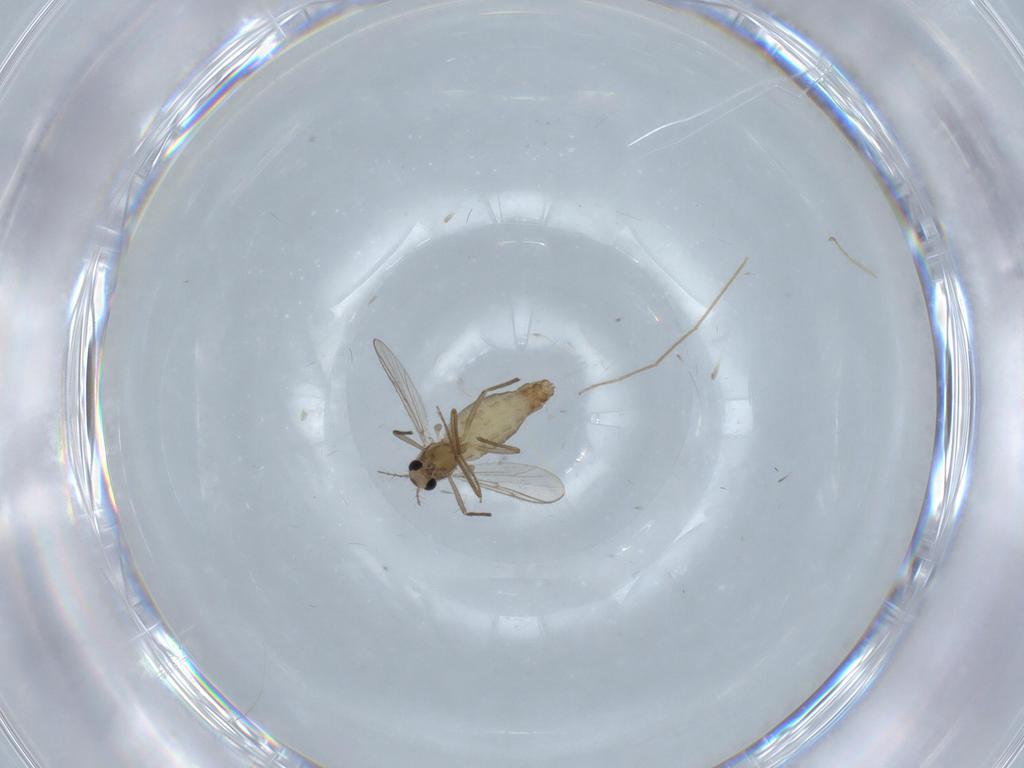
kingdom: Animalia
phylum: Arthropoda
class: Insecta
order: Diptera
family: Chironomidae
